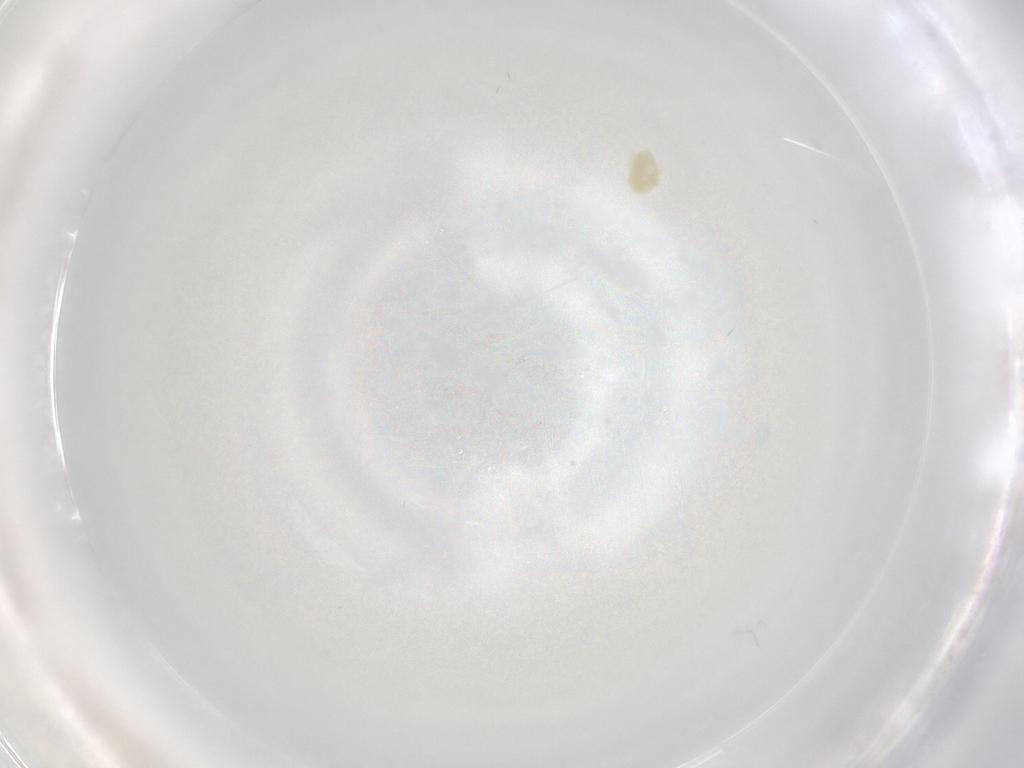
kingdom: Animalia
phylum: Arthropoda
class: Arachnida
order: Trombidiformes
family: Eupodidae
